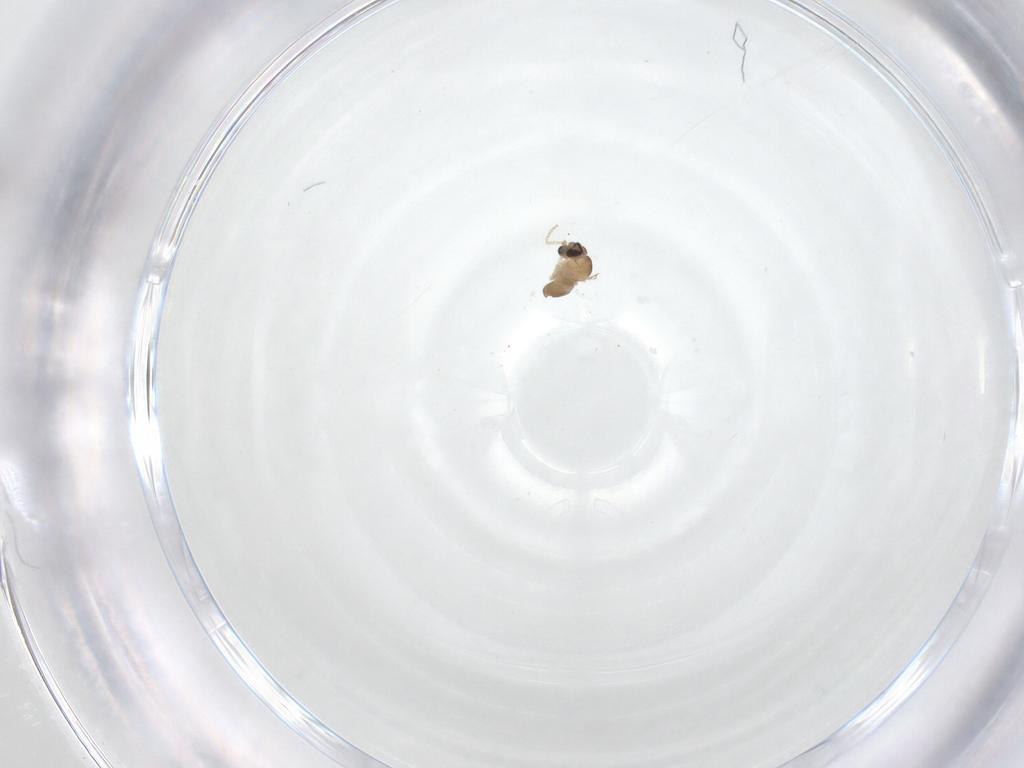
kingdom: Animalia
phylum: Arthropoda
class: Insecta
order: Diptera
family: Cecidomyiidae
